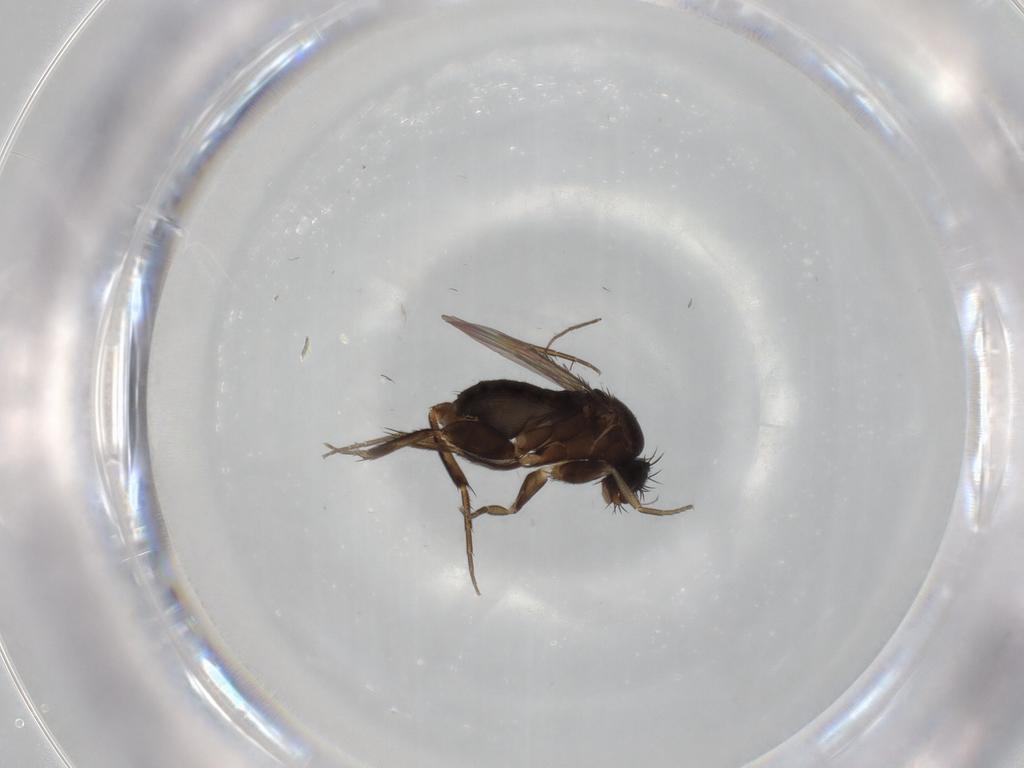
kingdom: Animalia
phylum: Arthropoda
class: Insecta
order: Diptera
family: Phoridae
